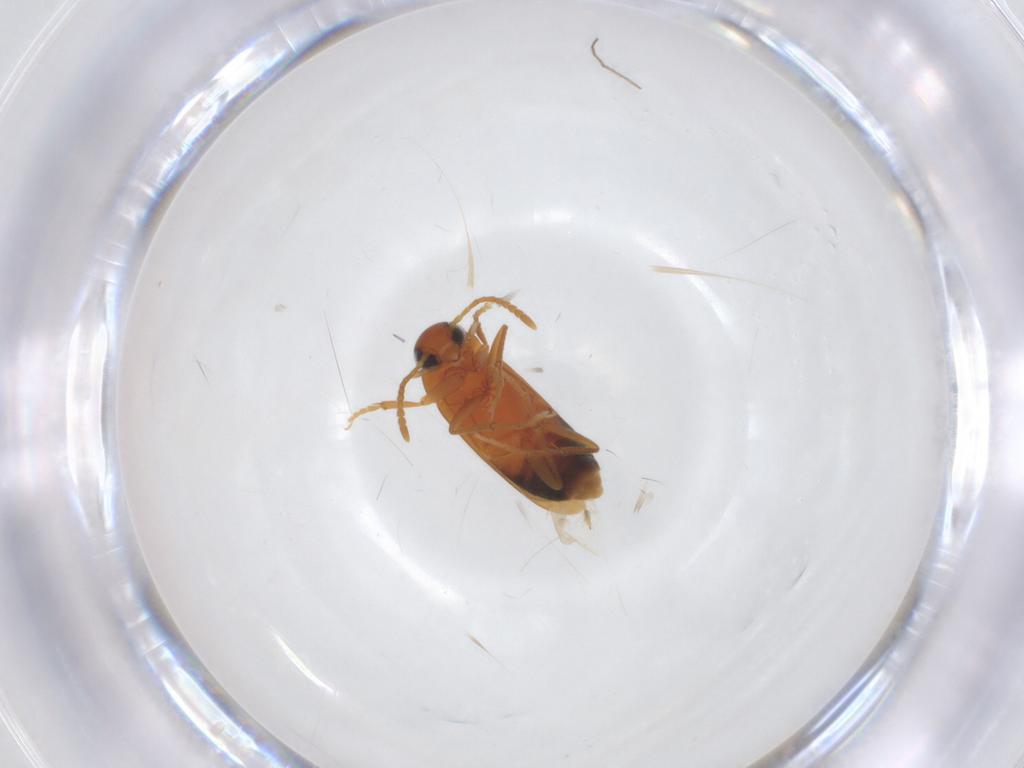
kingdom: Animalia
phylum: Arthropoda
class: Insecta
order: Coleoptera
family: Scraptiidae
